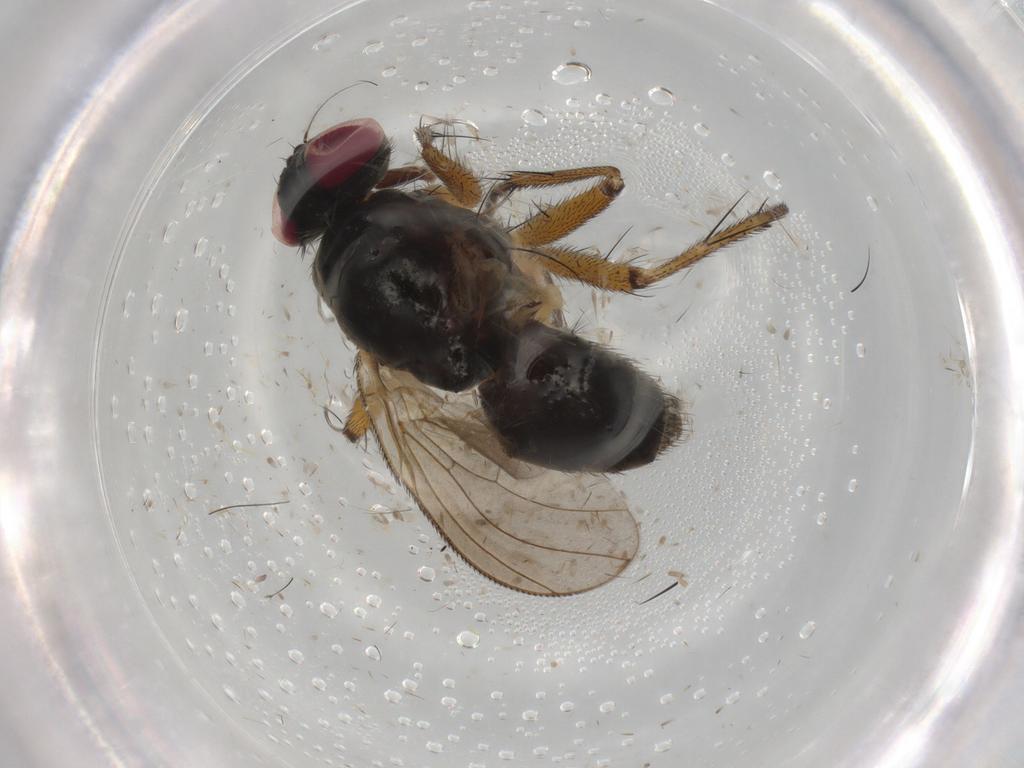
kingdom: Animalia
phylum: Arthropoda
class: Insecta
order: Diptera
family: Muscidae
